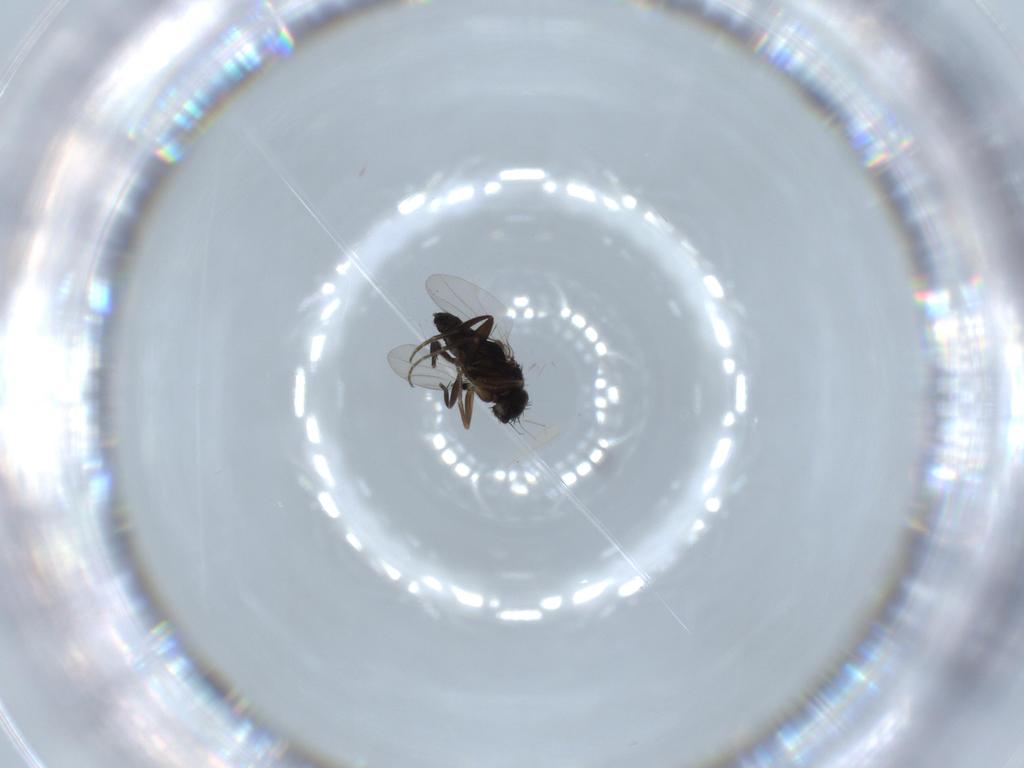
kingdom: Animalia
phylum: Arthropoda
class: Insecta
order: Diptera
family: Phoridae
